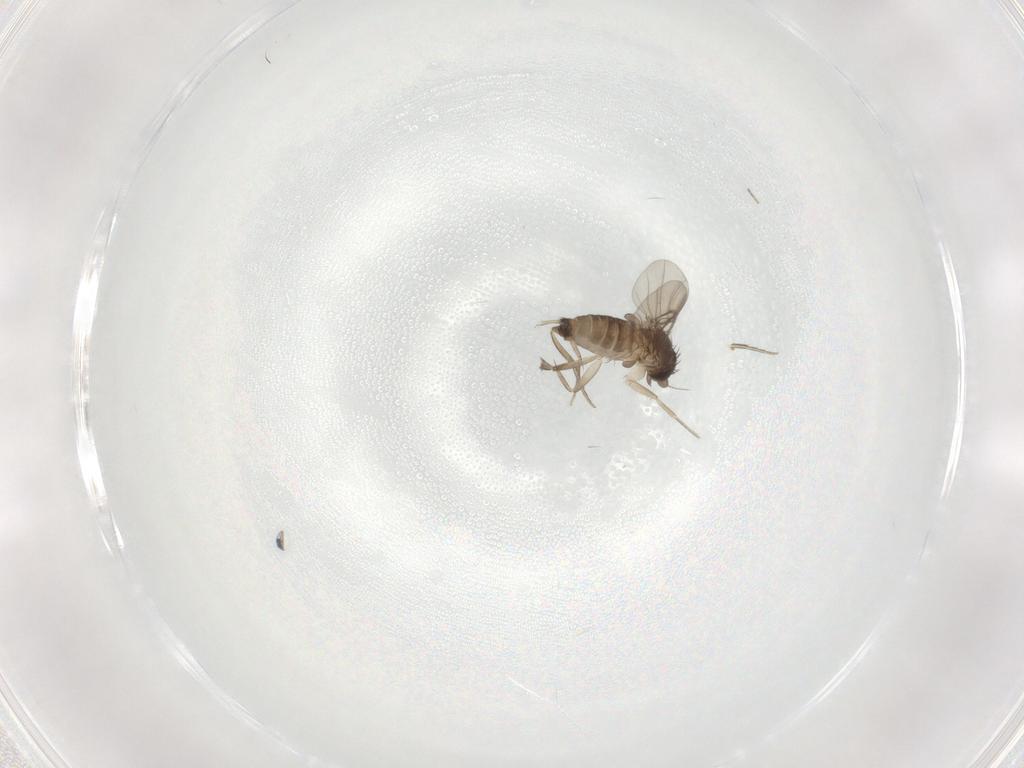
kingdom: Animalia
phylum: Arthropoda
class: Insecta
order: Diptera
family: Phoridae
